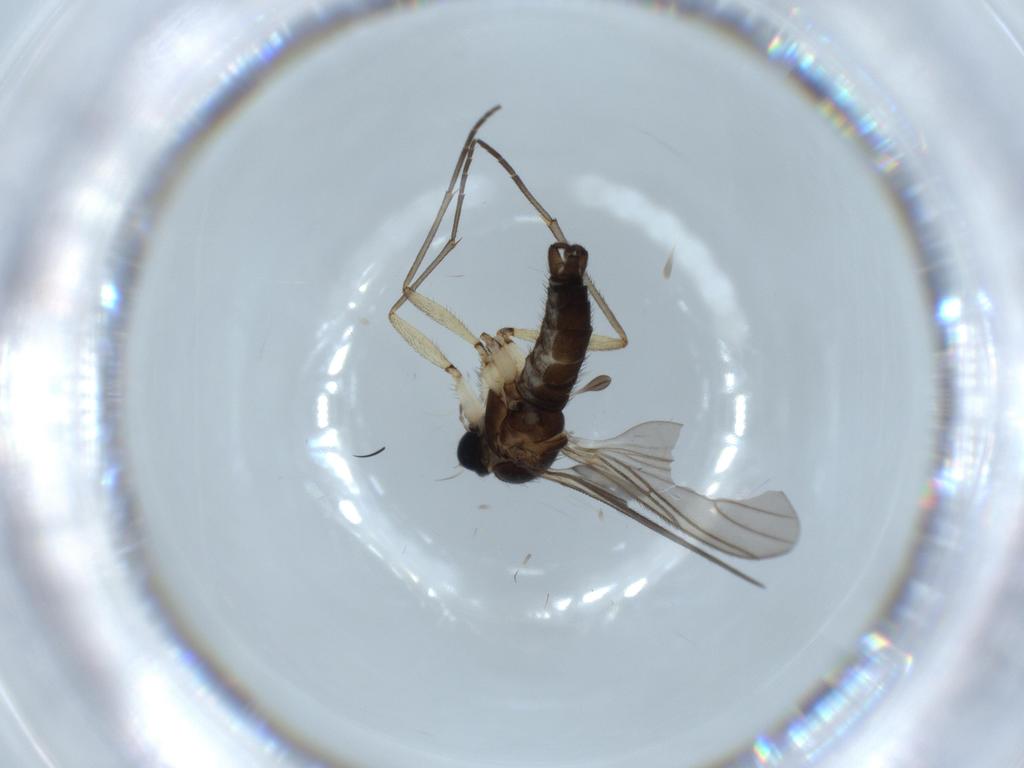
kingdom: Animalia
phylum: Arthropoda
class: Insecta
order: Diptera
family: Sciaridae
